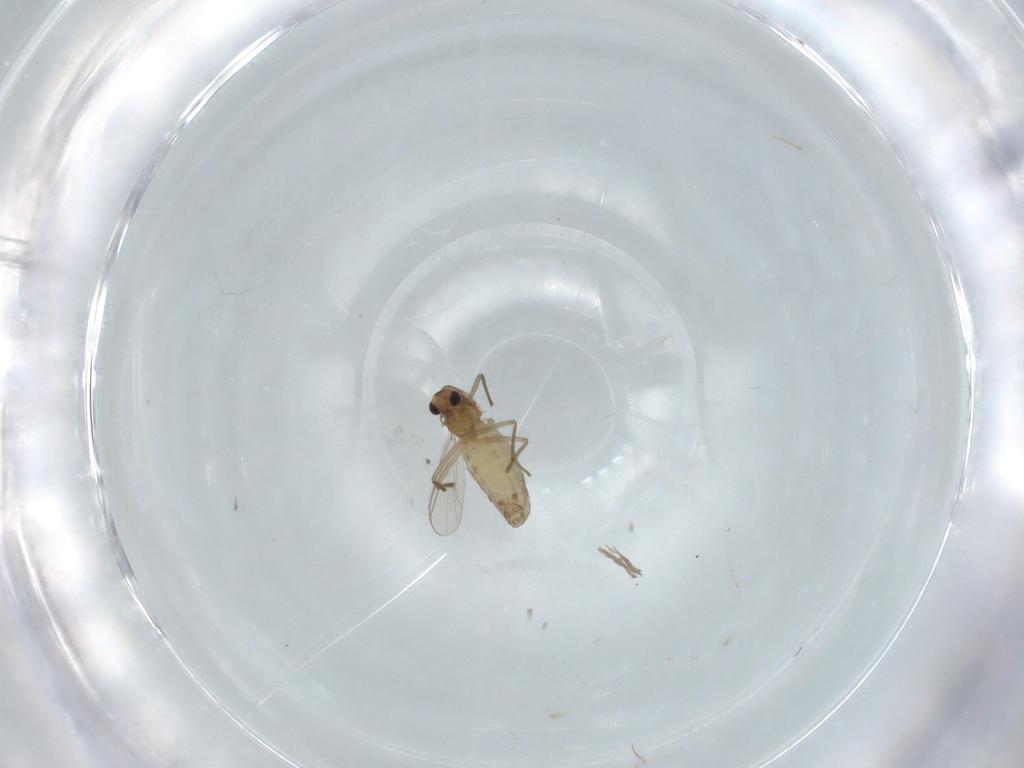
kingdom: Animalia
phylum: Arthropoda
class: Insecta
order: Diptera
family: Chironomidae
